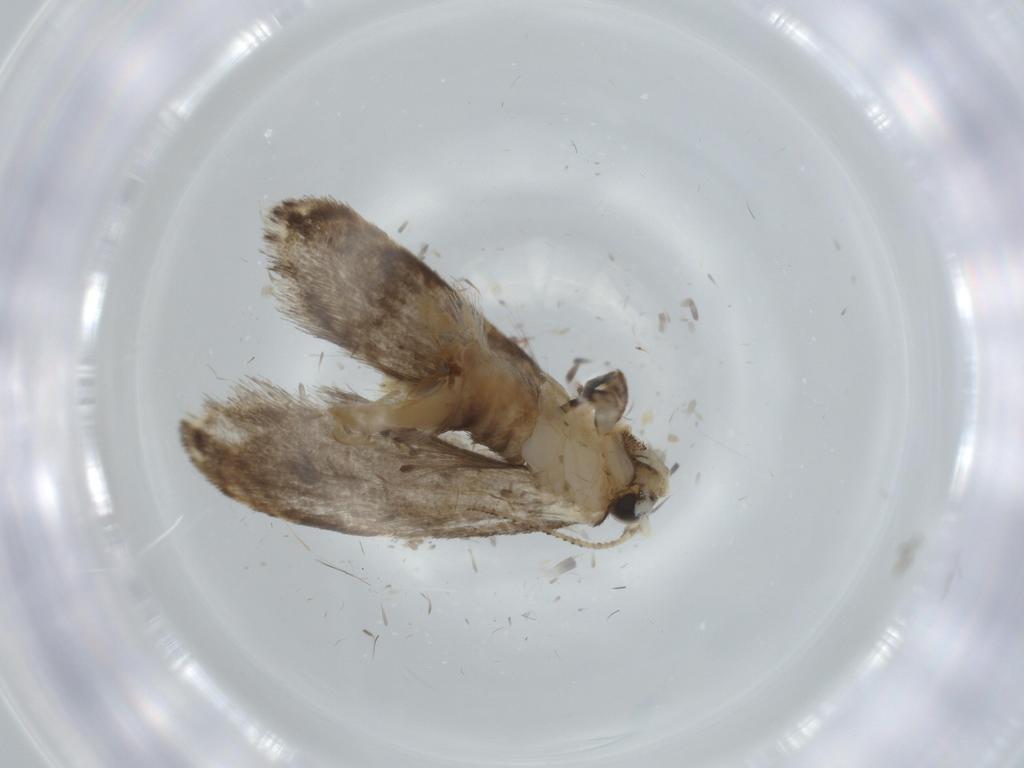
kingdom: Animalia
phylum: Arthropoda
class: Insecta
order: Lepidoptera
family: Tineidae
